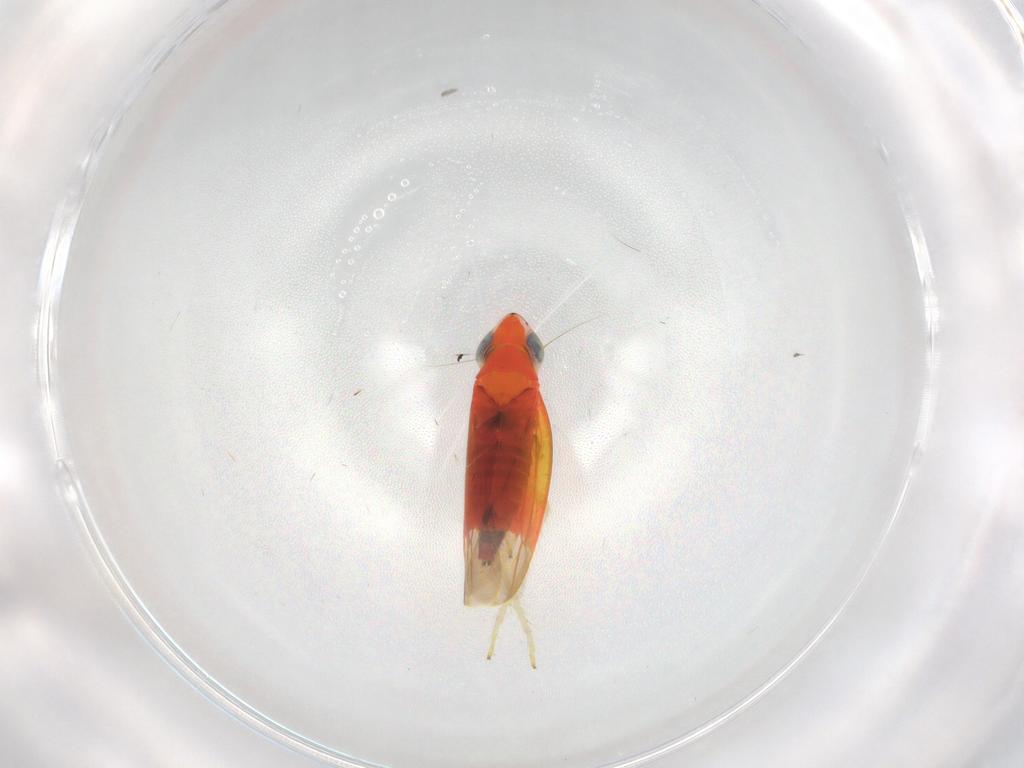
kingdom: Animalia
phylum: Arthropoda
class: Insecta
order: Hemiptera
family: Cicadellidae
